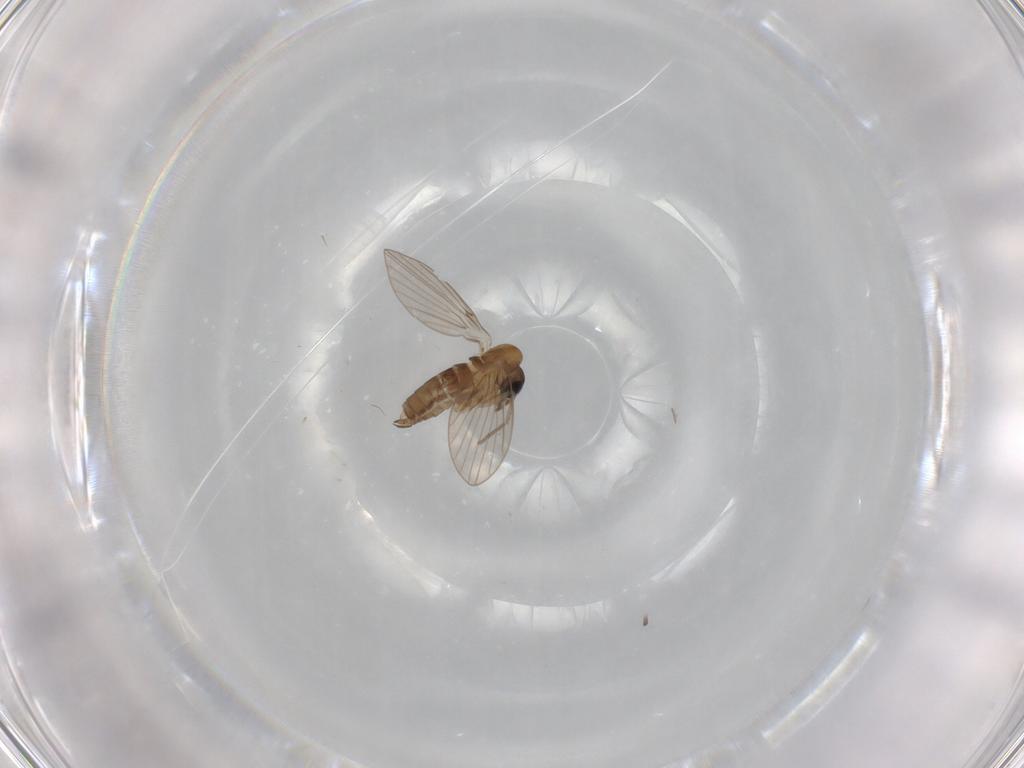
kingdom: Animalia
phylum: Arthropoda
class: Insecta
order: Diptera
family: Psychodidae
